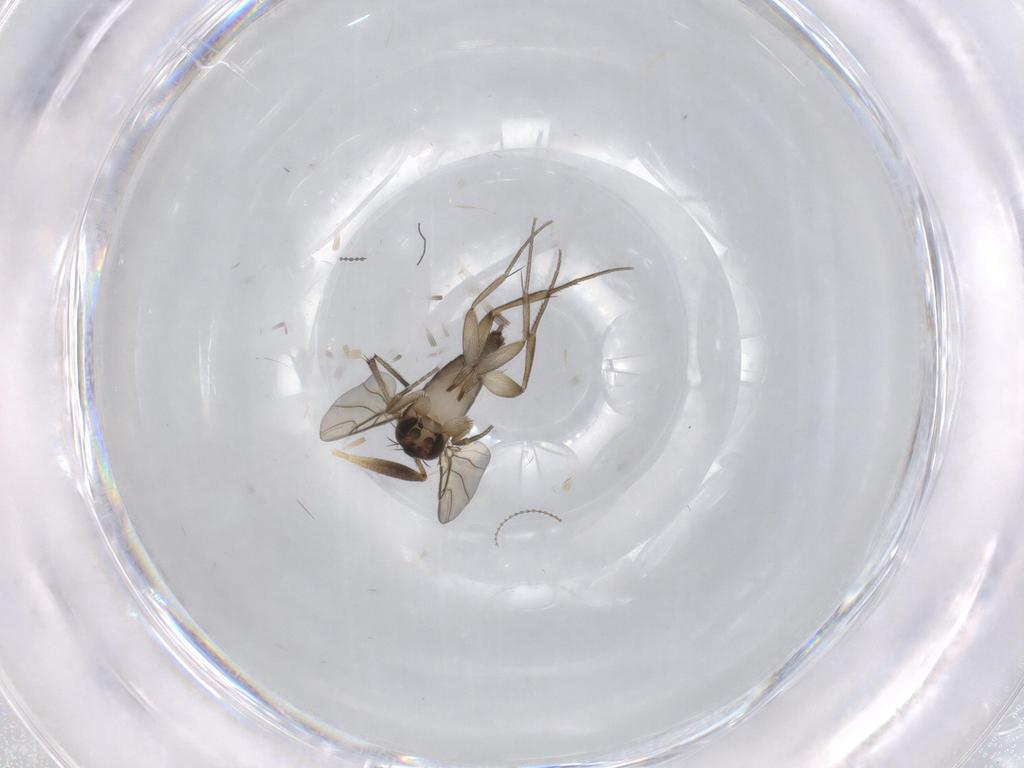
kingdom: Animalia
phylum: Arthropoda
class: Insecta
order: Diptera
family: Phoridae
